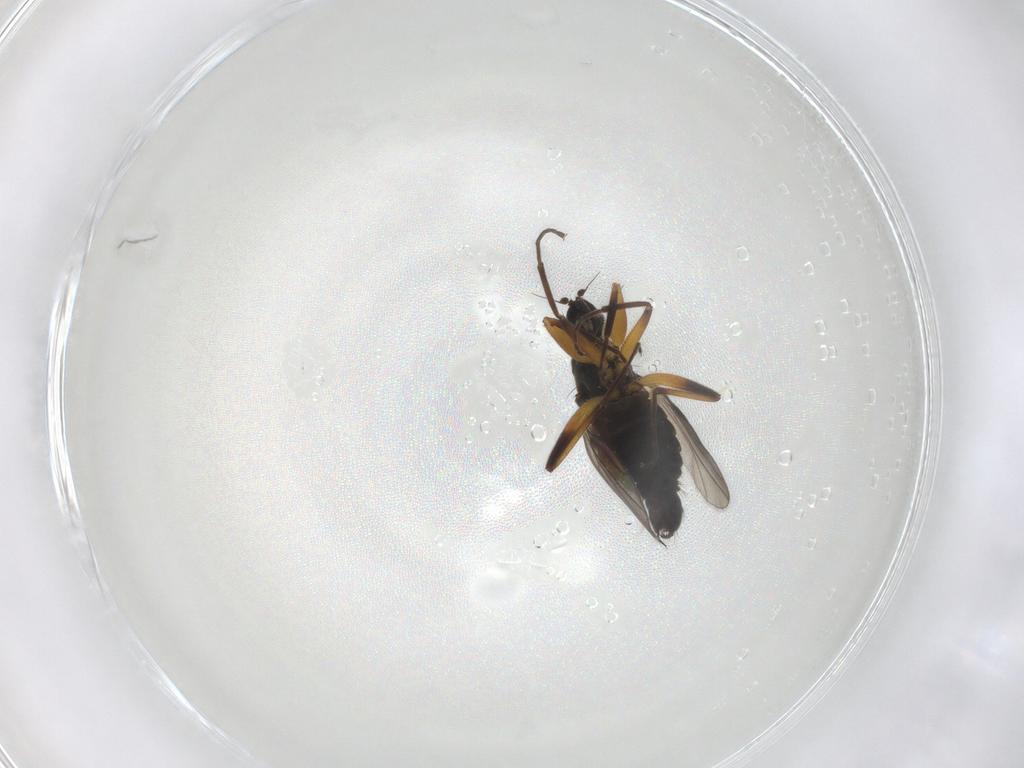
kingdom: Animalia
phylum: Arthropoda
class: Insecta
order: Diptera
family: Hybotidae
